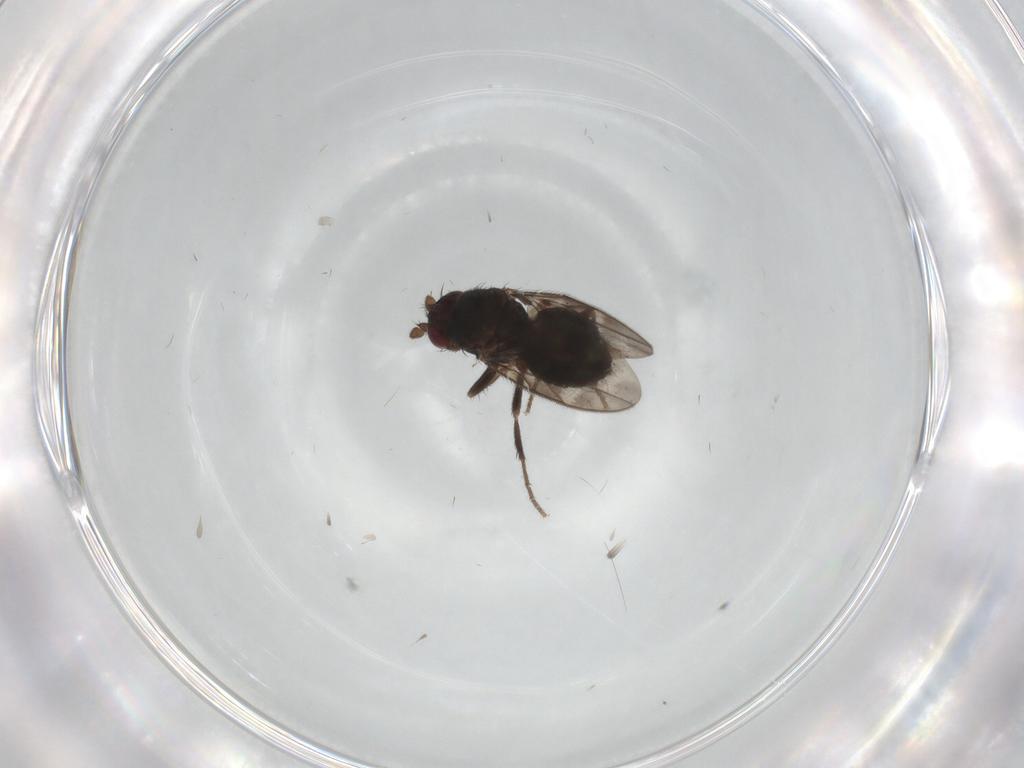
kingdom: Animalia
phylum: Arthropoda
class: Insecta
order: Diptera
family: Sphaeroceridae
